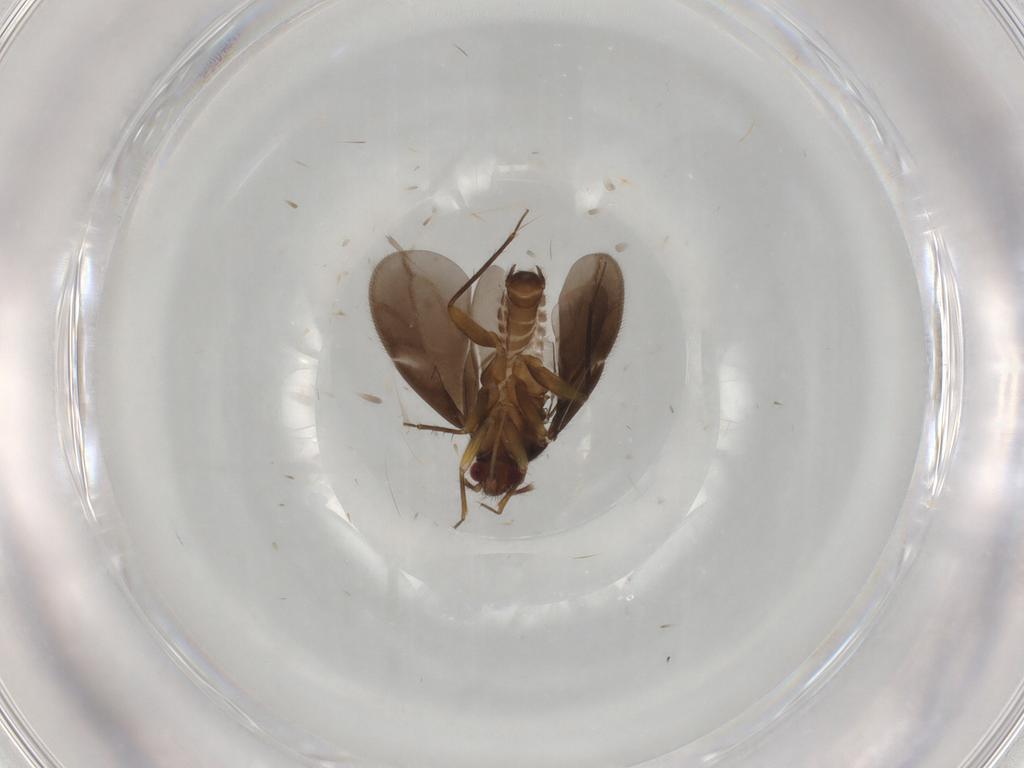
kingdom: Animalia
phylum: Arthropoda
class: Insecta
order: Hemiptera
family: Ceratocombidae
